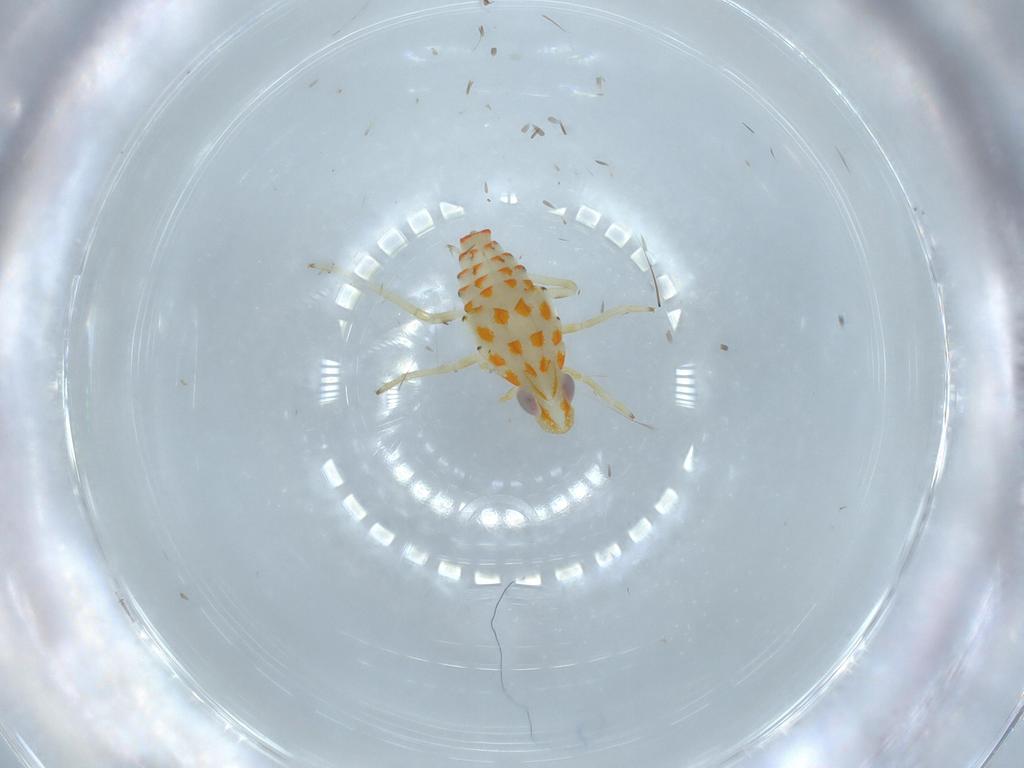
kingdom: Animalia
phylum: Arthropoda
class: Insecta
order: Hemiptera
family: Tropiduchidae
